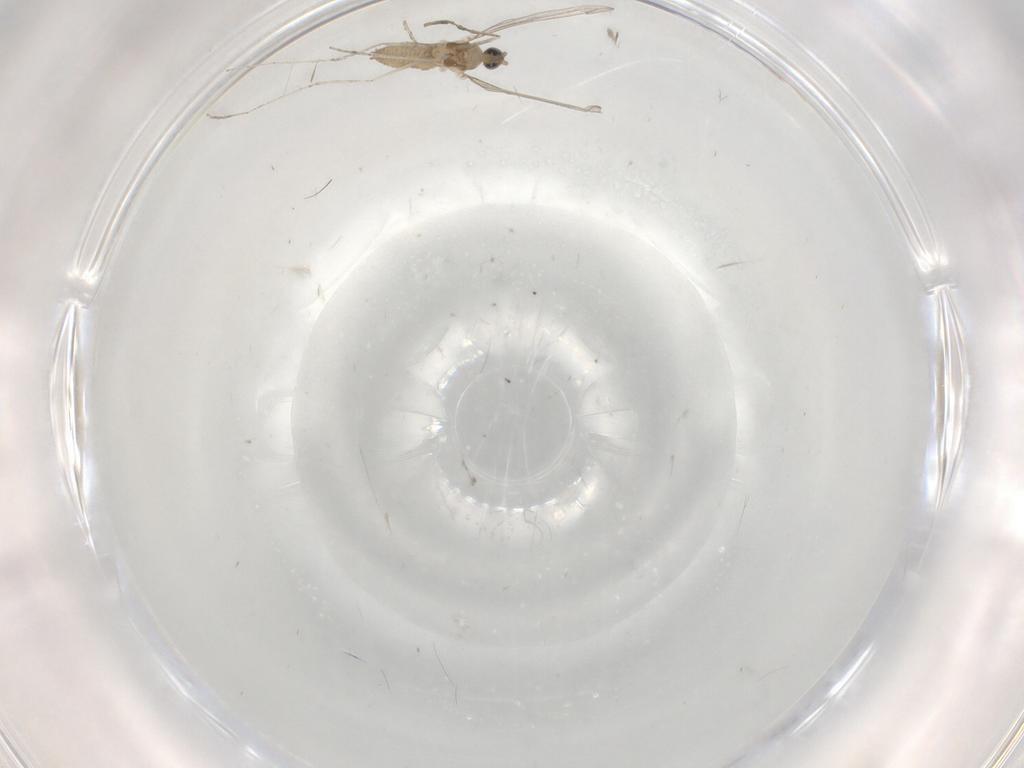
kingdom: Animalia
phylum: Arthropoda
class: Insecta
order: Diptera
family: Cecidomyiidae
